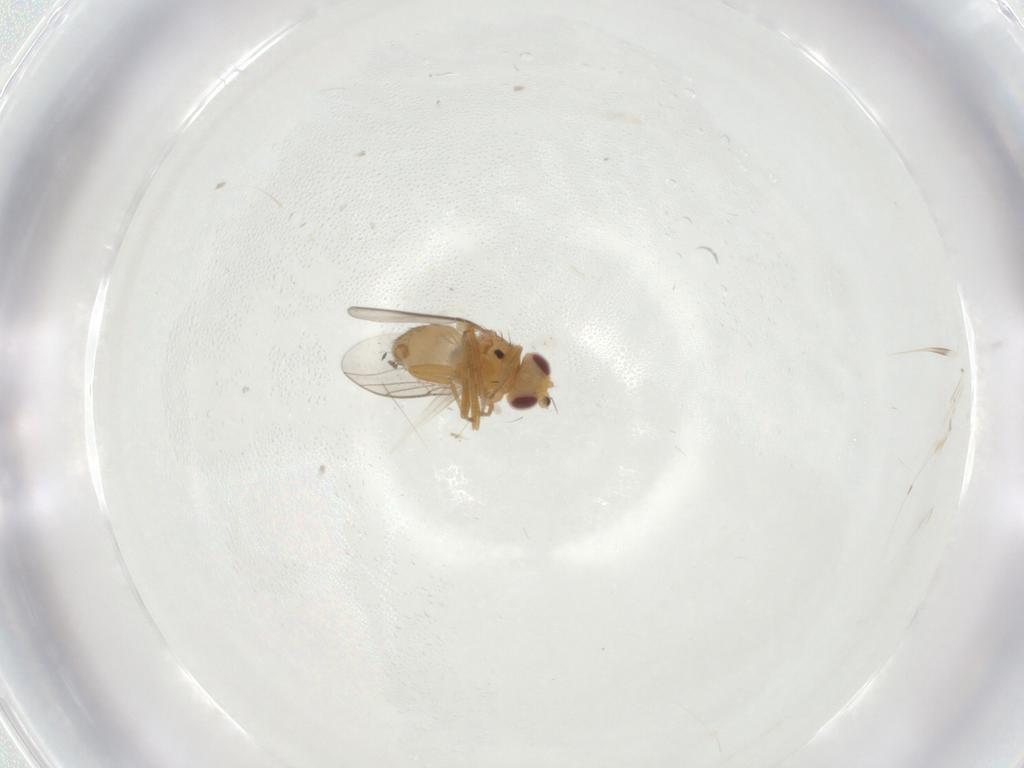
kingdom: Animalia
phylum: Arthropoda
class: Insecta
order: Diptera
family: Chloropidae
